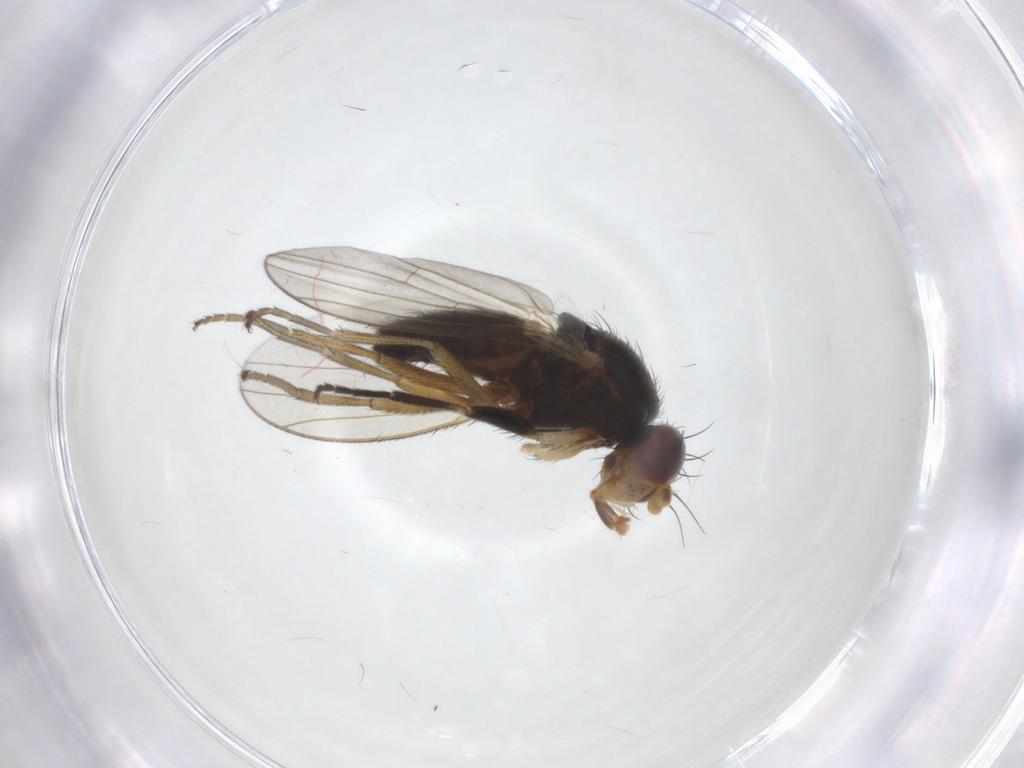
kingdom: Animalia
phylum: Arthropoda
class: Insecta
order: Diptera
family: Heleomyzidae
